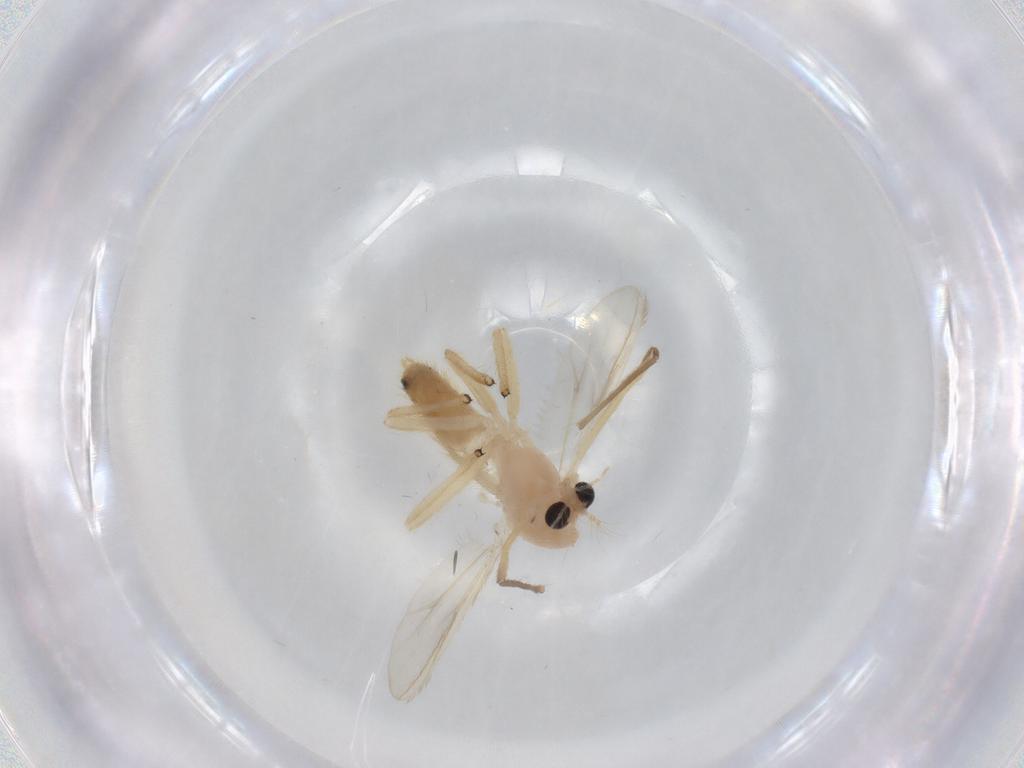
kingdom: Animalia
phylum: Arthropoda
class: Insecta
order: Diptera
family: Chironomidae
